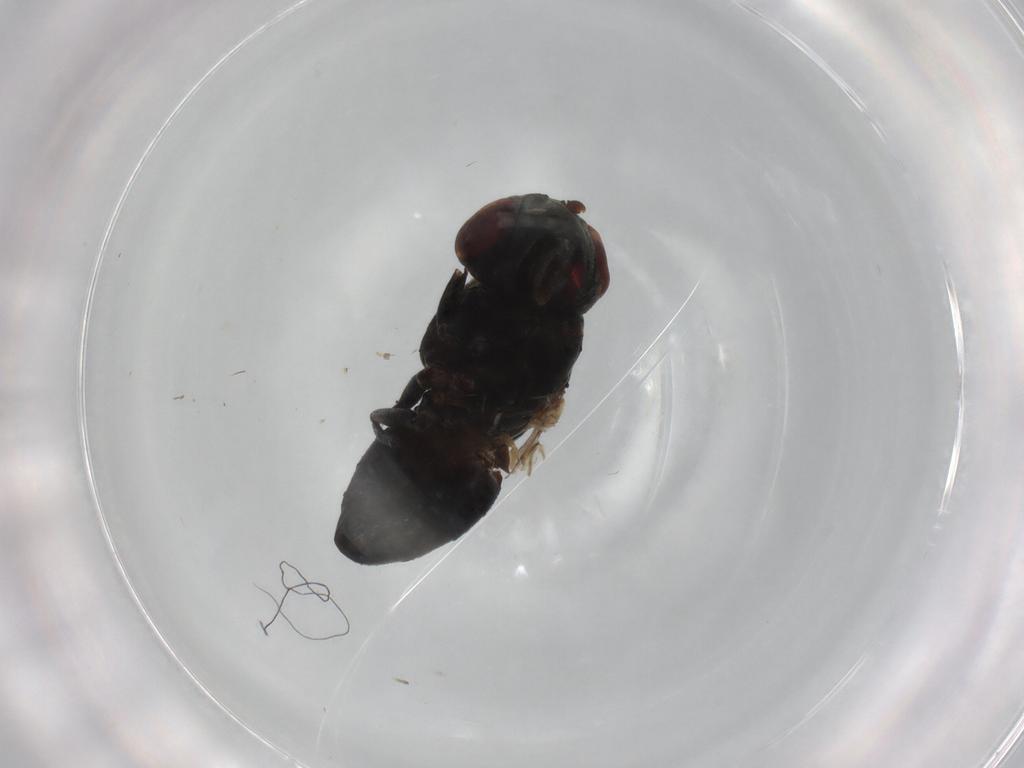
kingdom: Animalia
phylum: Arthropoda
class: Insecta
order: Diptera
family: Ephydridae
